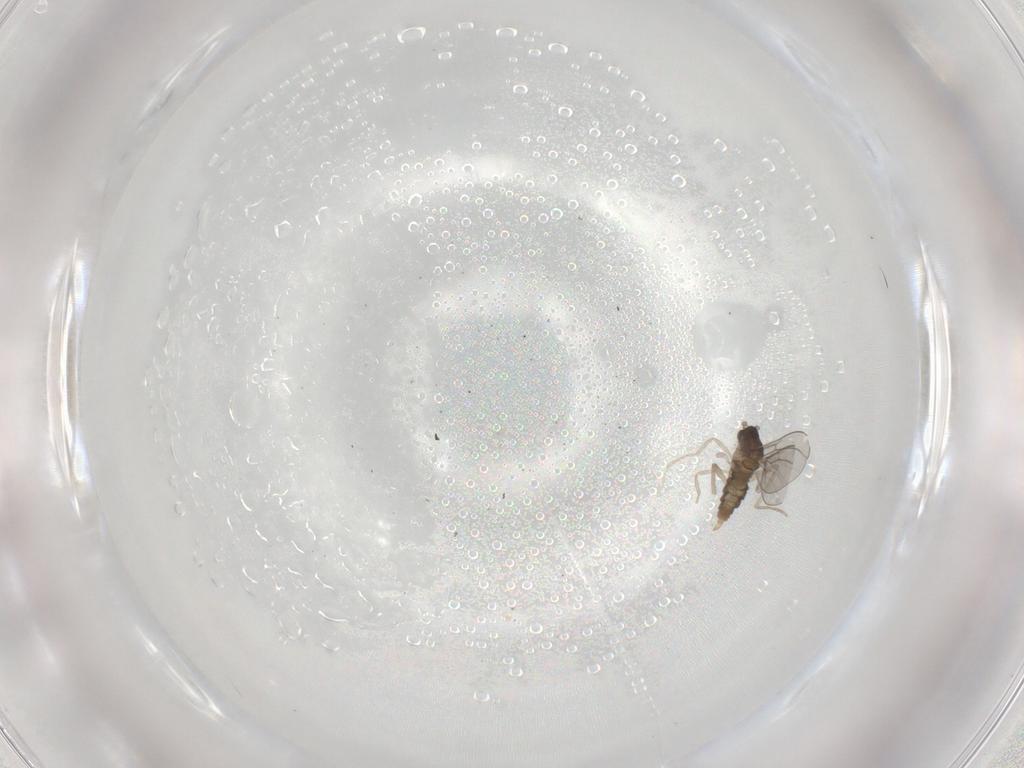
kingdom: Animalia
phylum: Arthropoda
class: Insecta
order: Diptera
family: Cecidomyiidae
